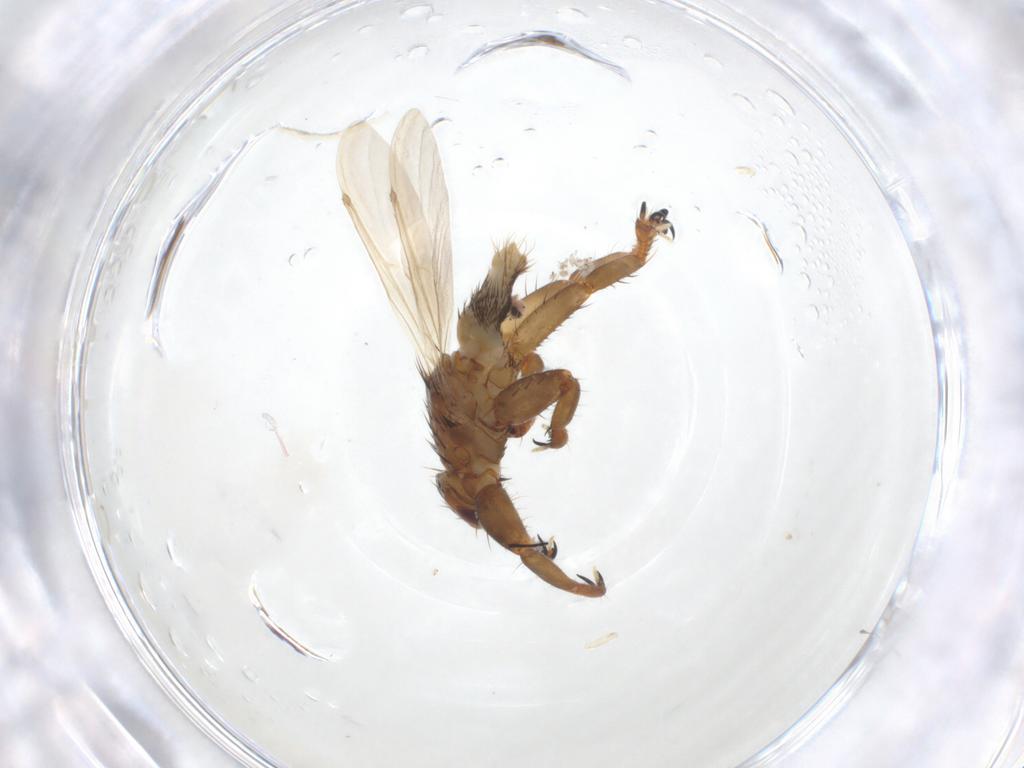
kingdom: Animalia
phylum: Arthropoda
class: Insecta
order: Diptera
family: Hippoboscidae
